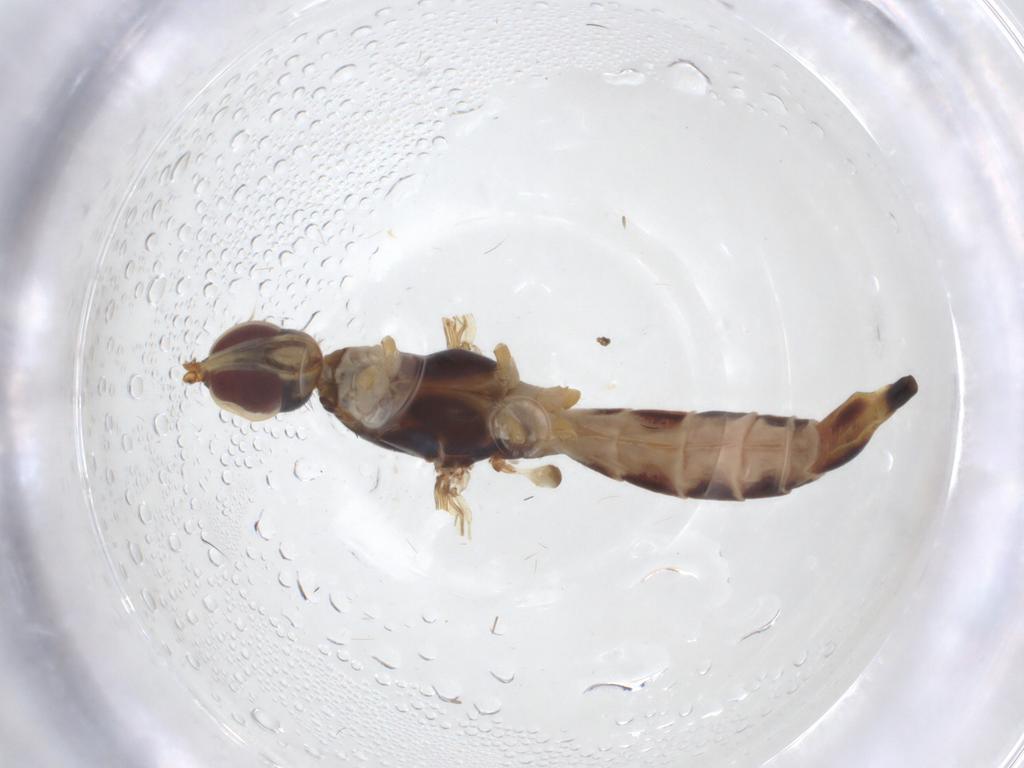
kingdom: Animalia
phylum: Arthropoda
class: Insecta
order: Diptera
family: Micropezidae
